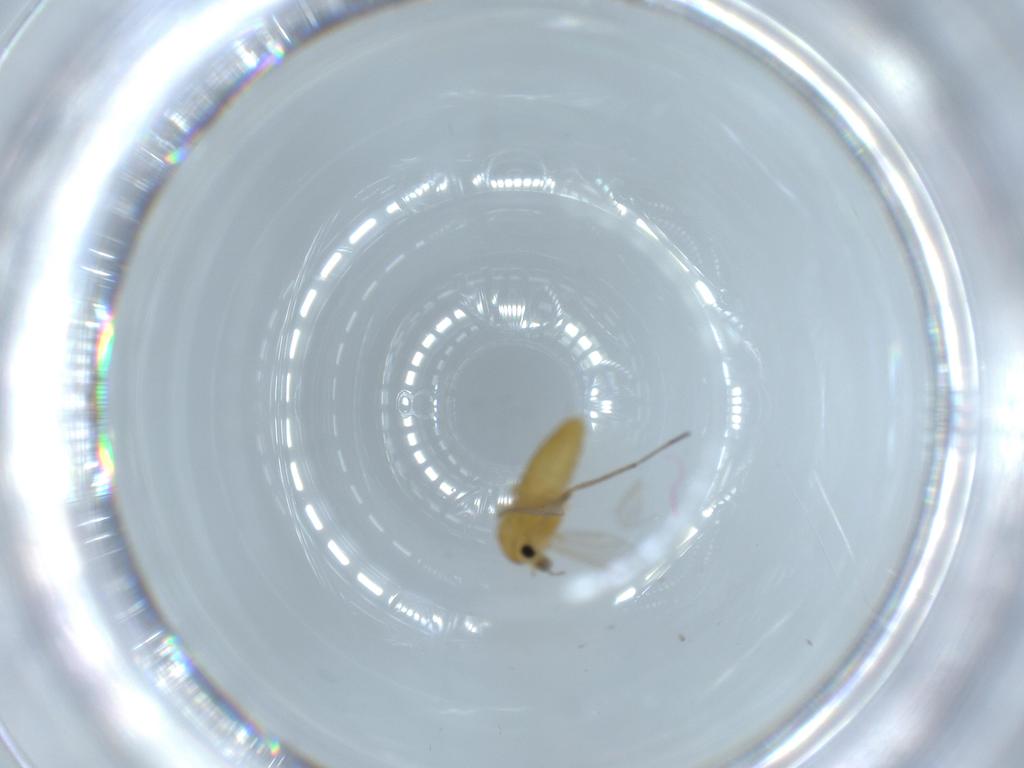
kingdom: Animalia
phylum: Arthropoda
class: Insecta
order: Diptera
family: Chironomidae
